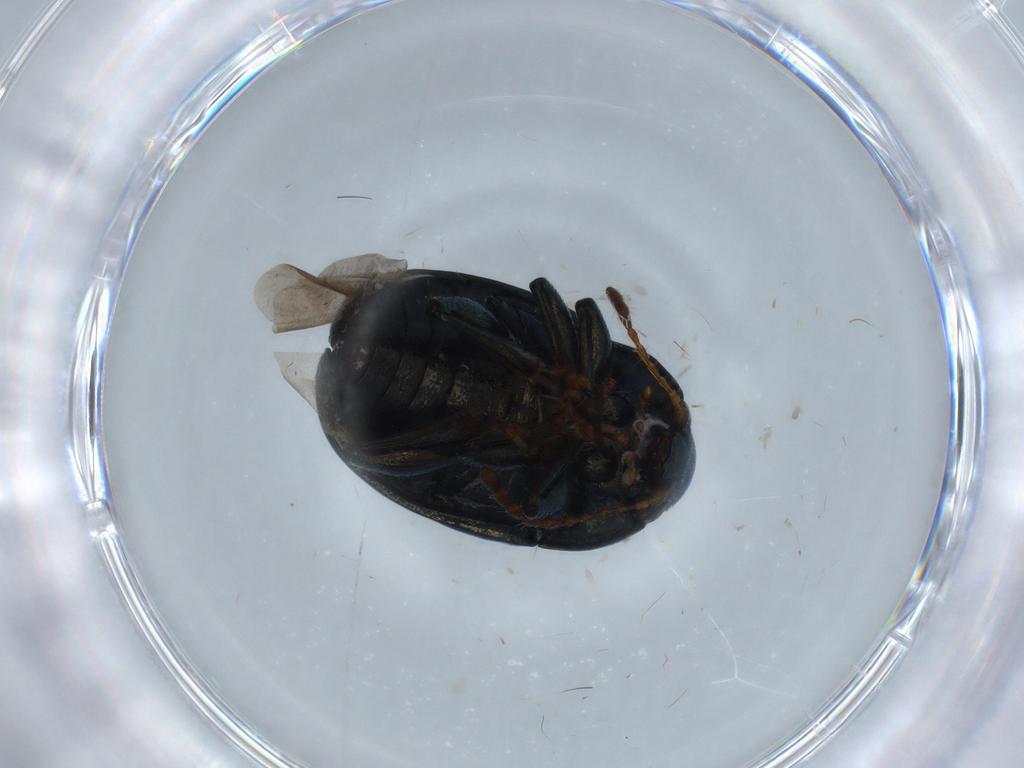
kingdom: Animalia
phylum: Arthropoda
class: Insecta
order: Coleoptera
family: Chrysomelidae
